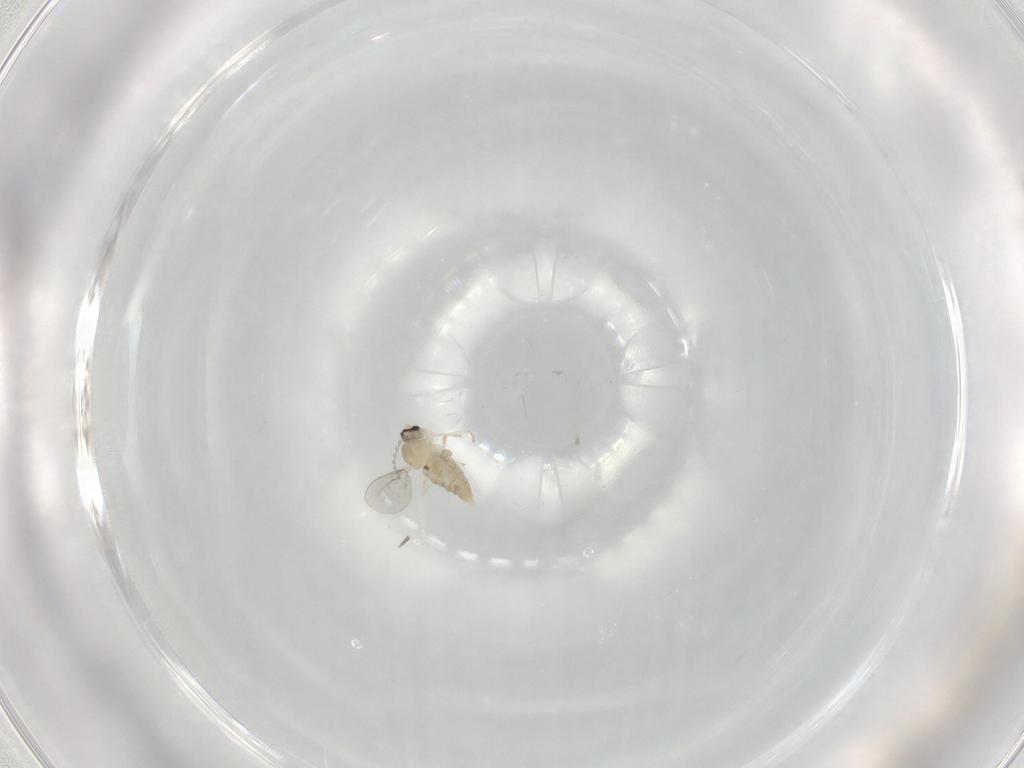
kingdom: Animalia
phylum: Arthropoda
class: Insecta
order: Diptera
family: Cecidomyiidae
